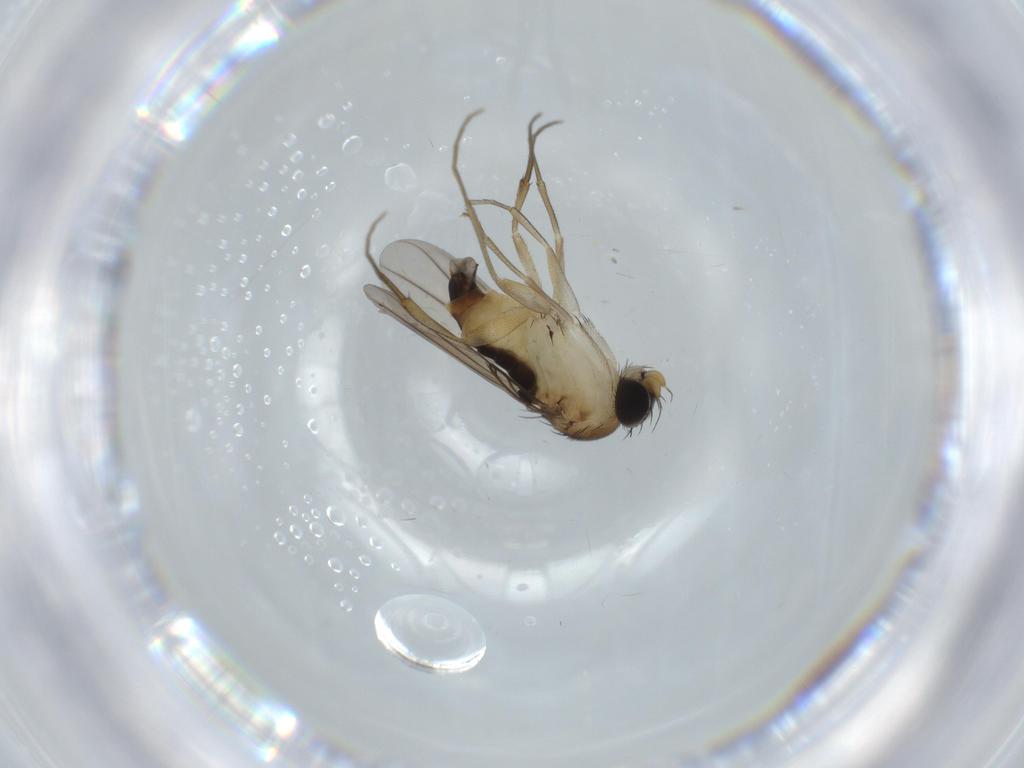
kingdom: Animalia
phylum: Arthropoda
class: Insecta
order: Diptera
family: Phoridae
